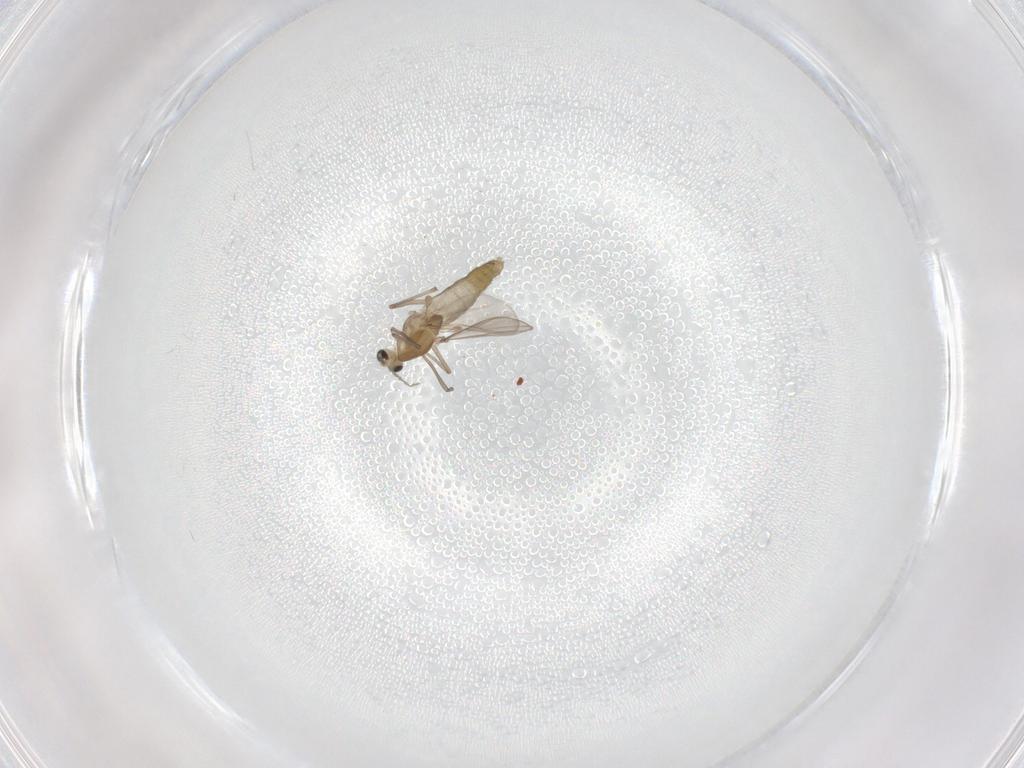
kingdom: Animalia
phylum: Arthropoda
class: Insecta
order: Diptera
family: Chironomidae
